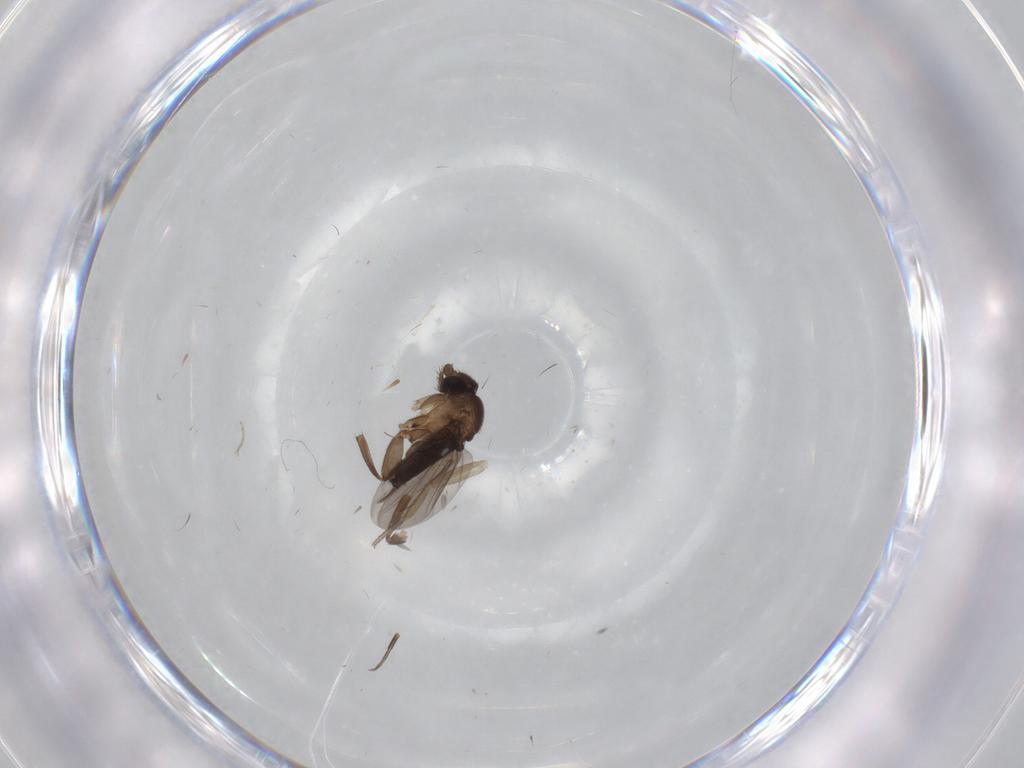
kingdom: Animalia
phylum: Arthropoda
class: Insecta
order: Diptera
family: Phoridae
